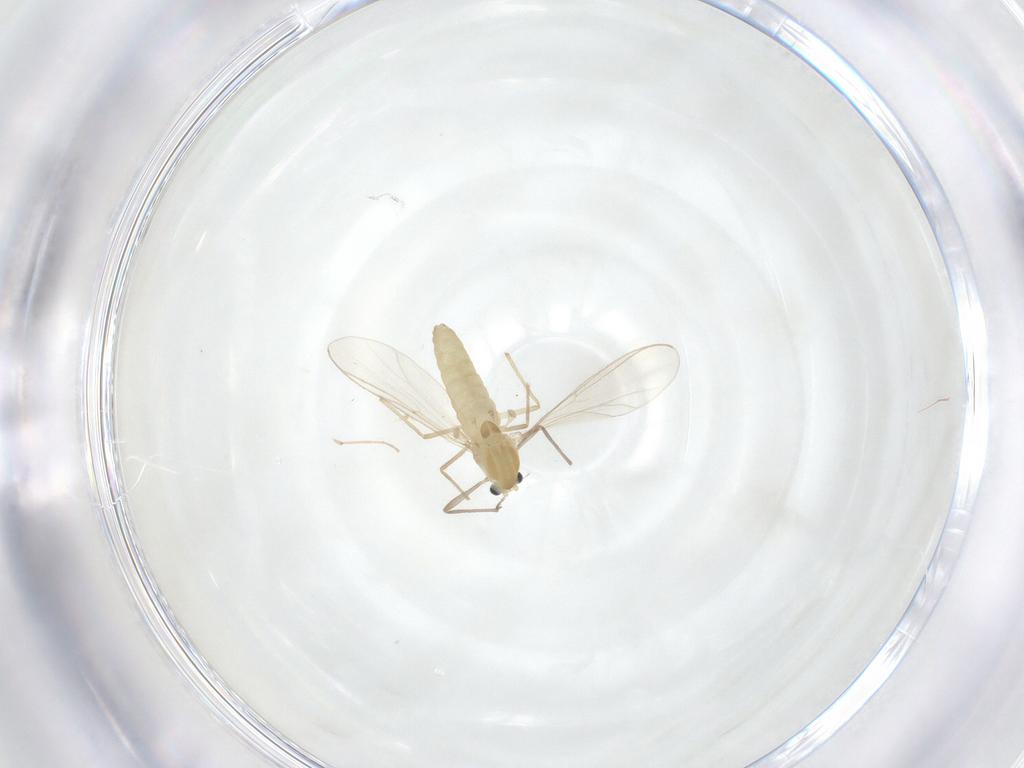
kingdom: Animalia
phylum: Arthropoda
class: Insecta
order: Diptera
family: Chironomidae
